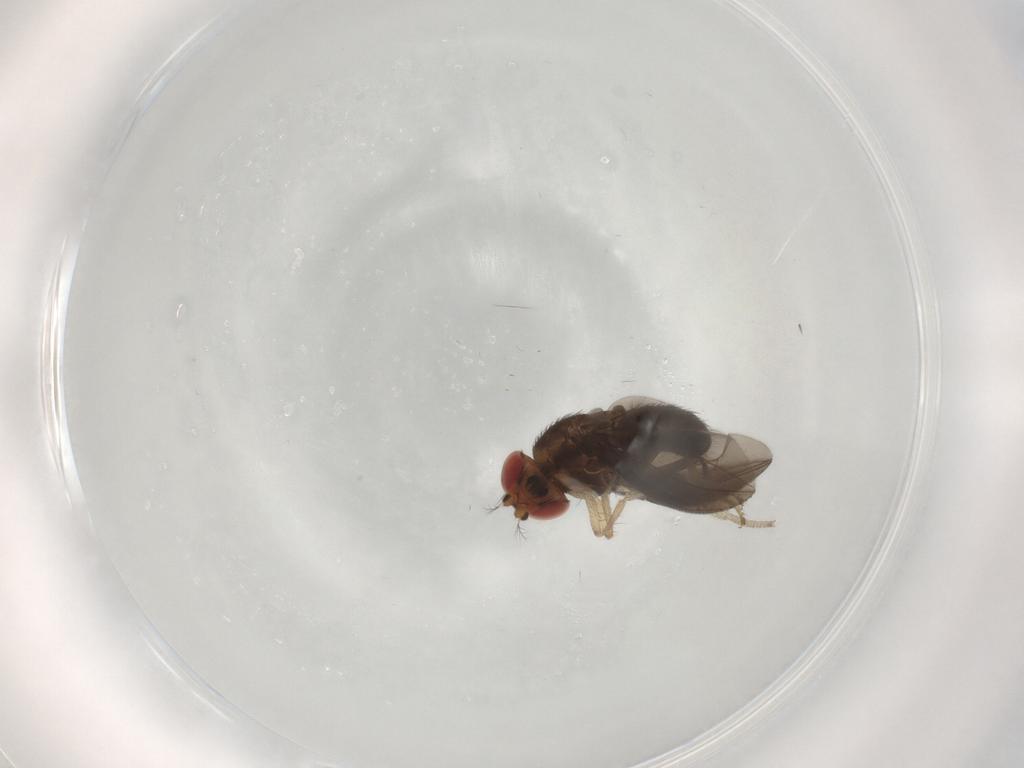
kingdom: Animalia
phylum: Arthropoda
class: Insecta
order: Diptera
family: Drosophilidae
